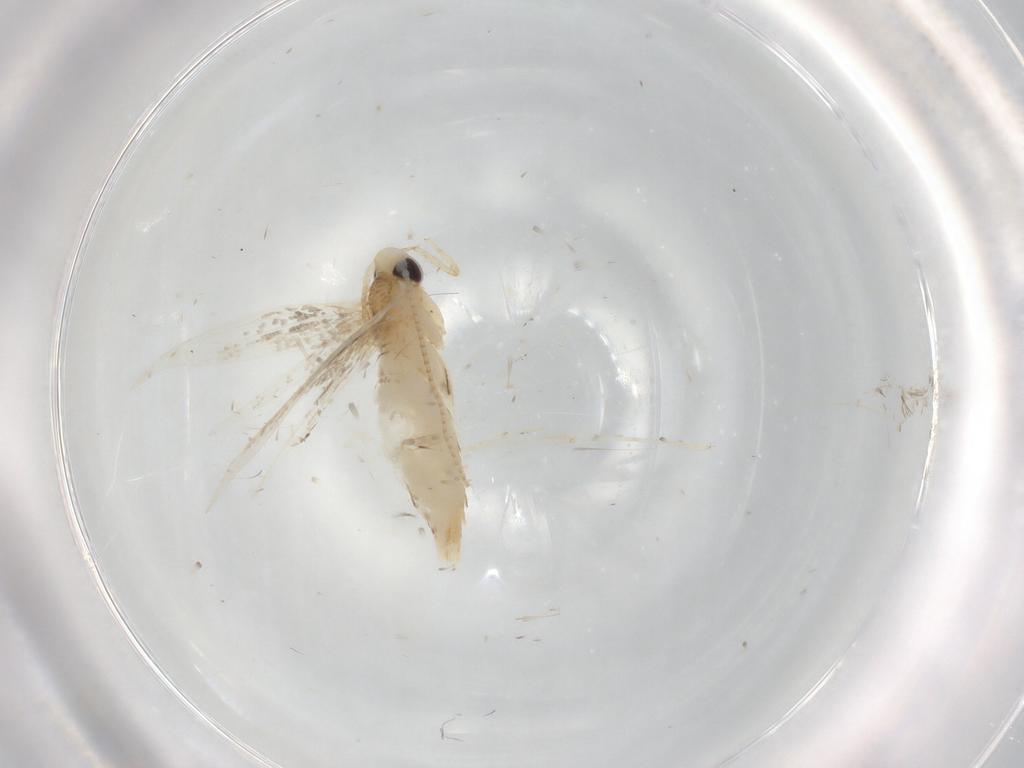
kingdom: Animalia
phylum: Arthropoda
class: Insecta
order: Lepidoptera
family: Gracillariidae
